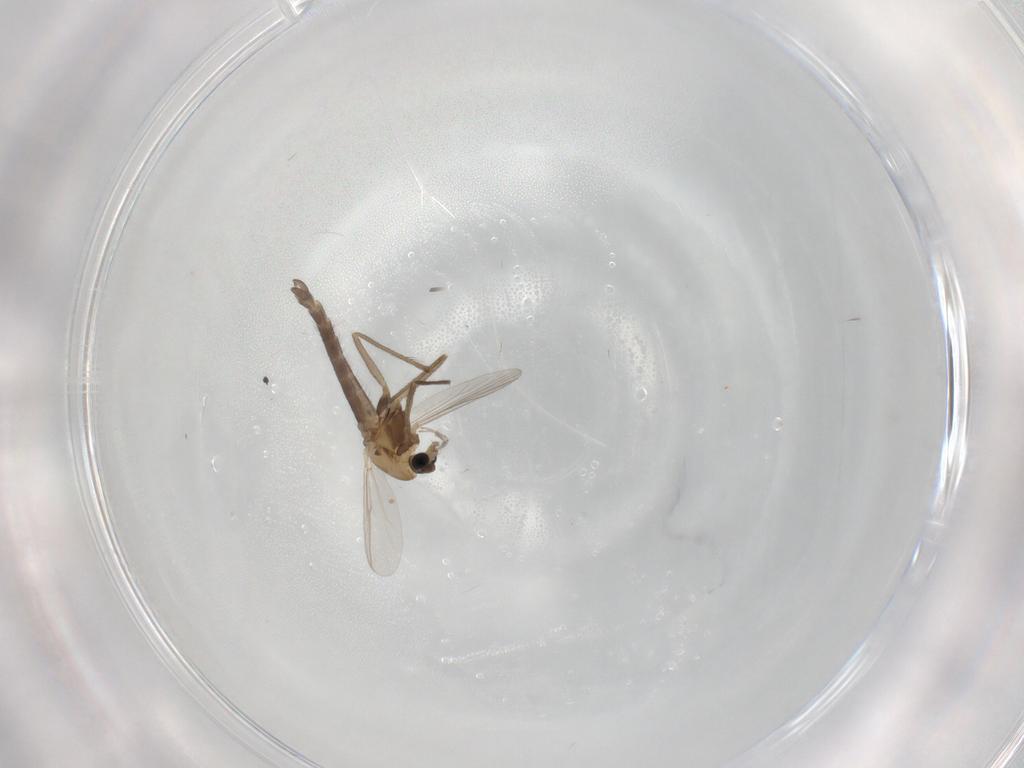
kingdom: Animalia
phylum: Arthropoda
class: Insecta
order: Diptera
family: Chironomidae
